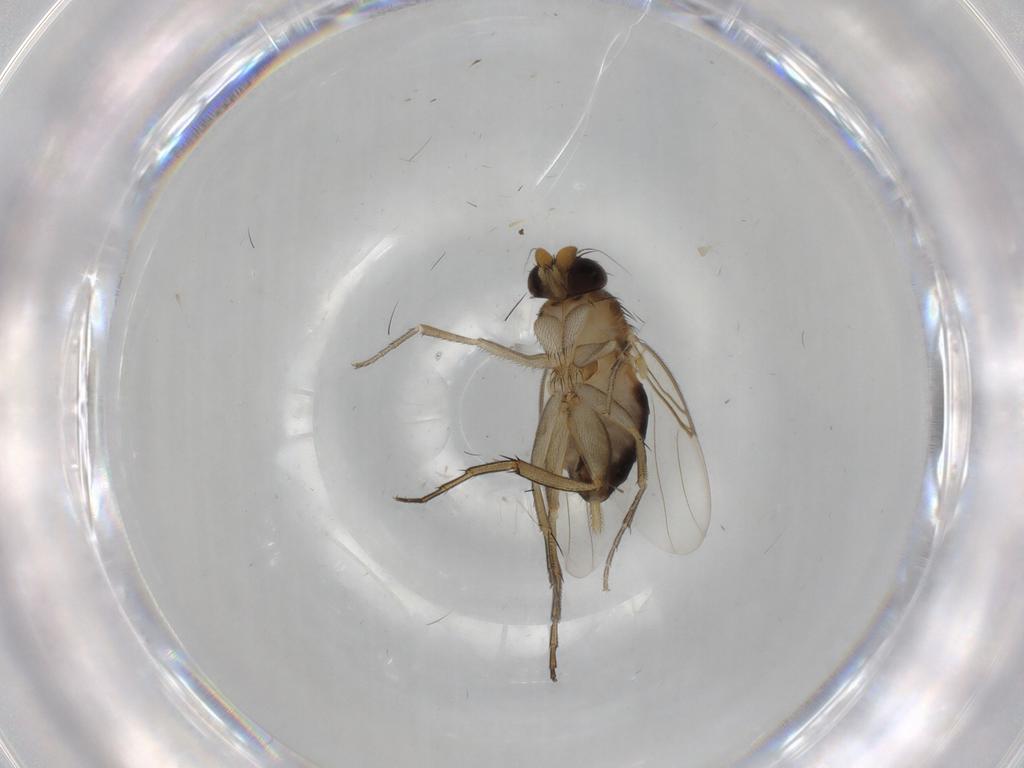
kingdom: Animalia
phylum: Arthropoda
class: Insecta
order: Diptera
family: Phoridae
